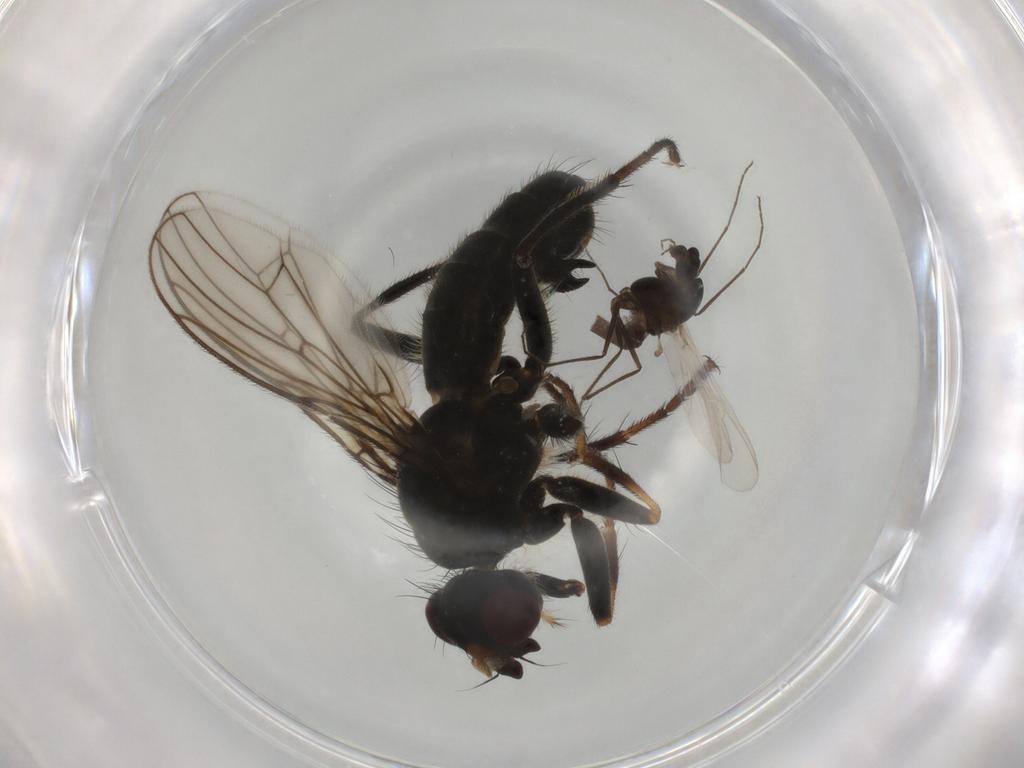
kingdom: Animalia
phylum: Arthropoda
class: Insecta
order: Diptera
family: Scathophagidae
